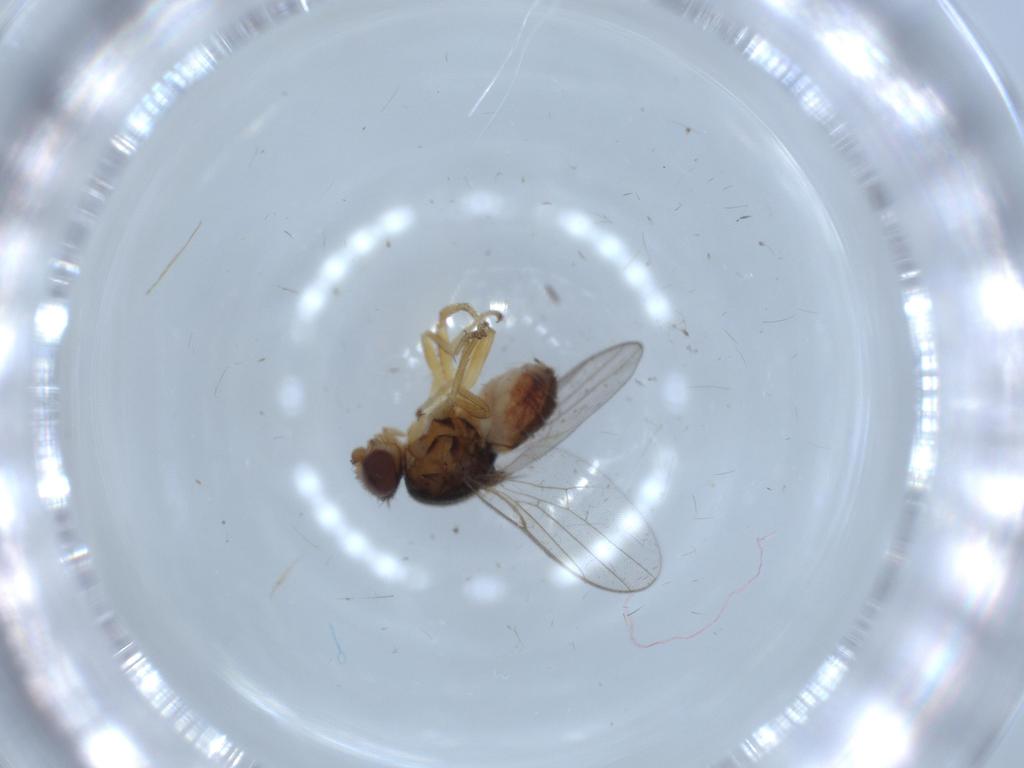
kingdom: Animalia
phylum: Arthropoda
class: Insecta
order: Diptera
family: Chloropidae
